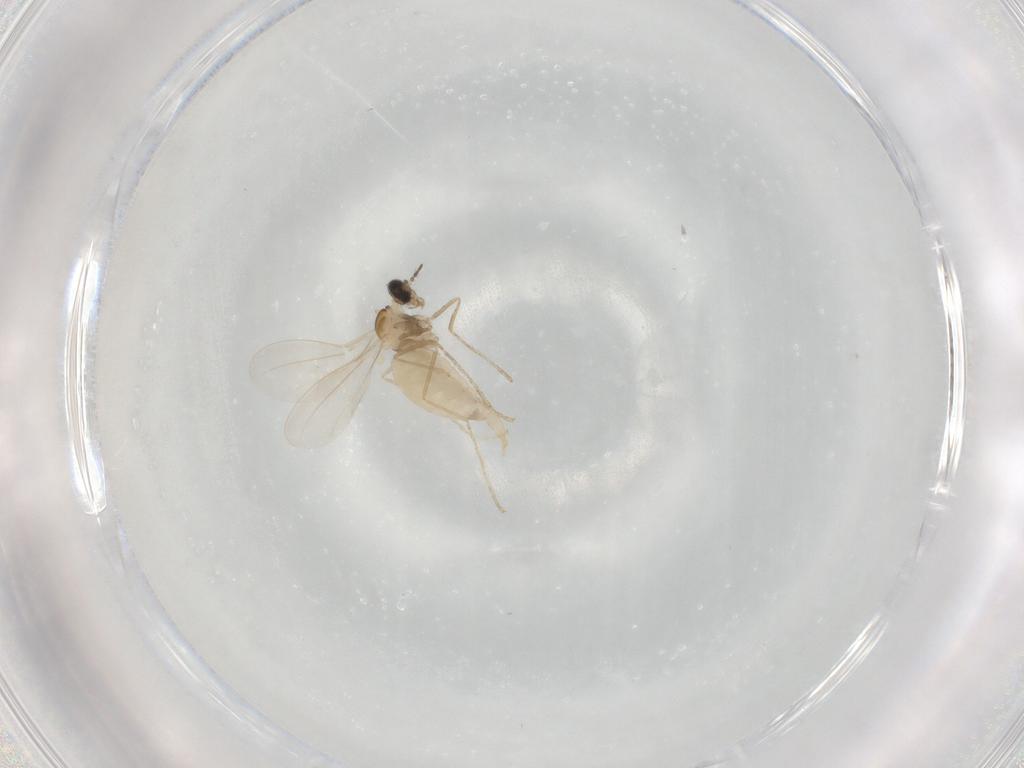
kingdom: Animalia
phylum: Arthropoda
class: Insecta
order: Diptera
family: Cecidomyiidae
